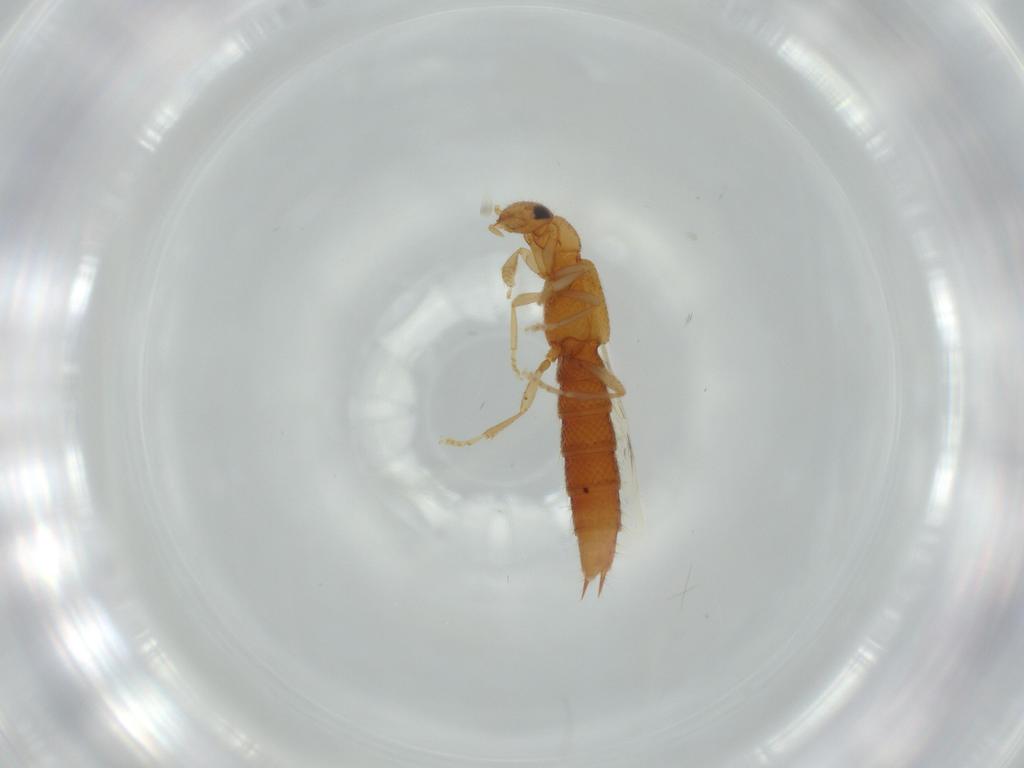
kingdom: Animalia
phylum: Arthropoda
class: Insecta
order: Coleoptera
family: Staphylinidae
